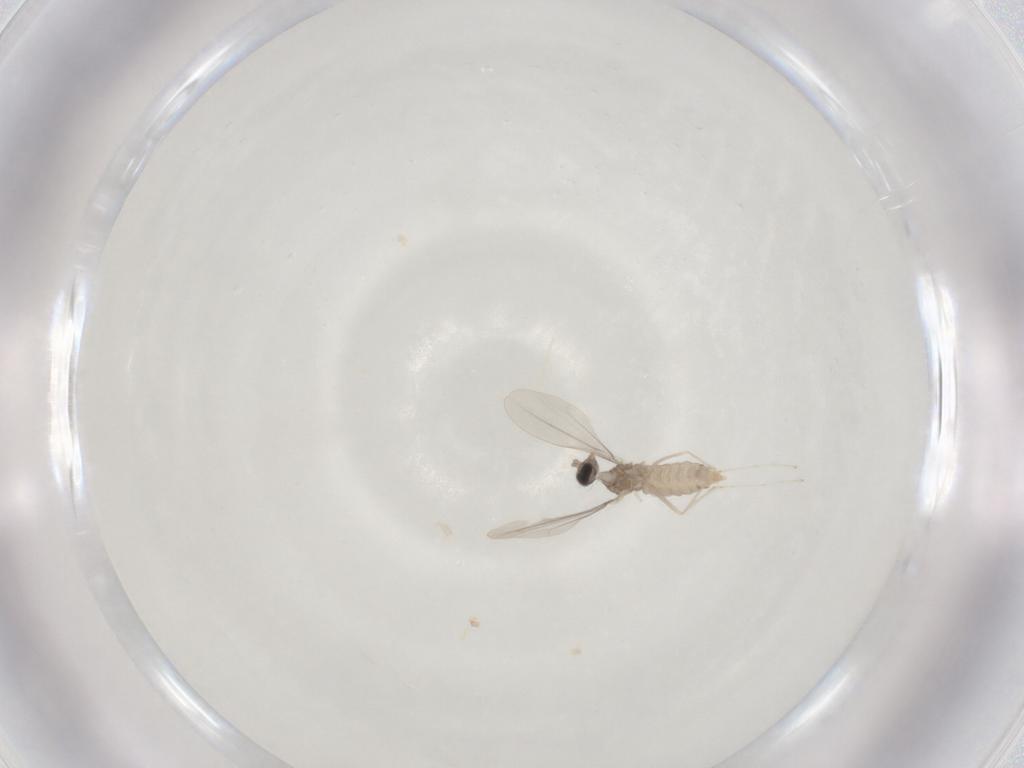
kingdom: Animalia
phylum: Arthropoda
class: Insecta
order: Diptera
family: Cecidomyiidae
